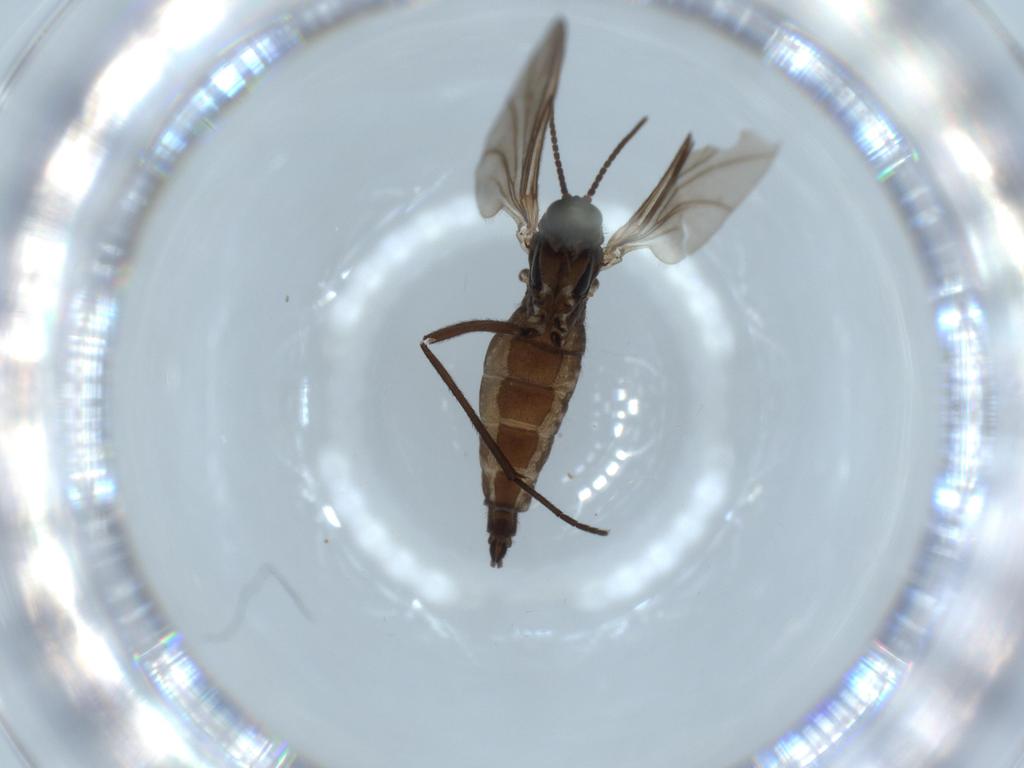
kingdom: Animalia
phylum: Arthropoda
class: Insecta
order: Diptera
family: Sciaridae
